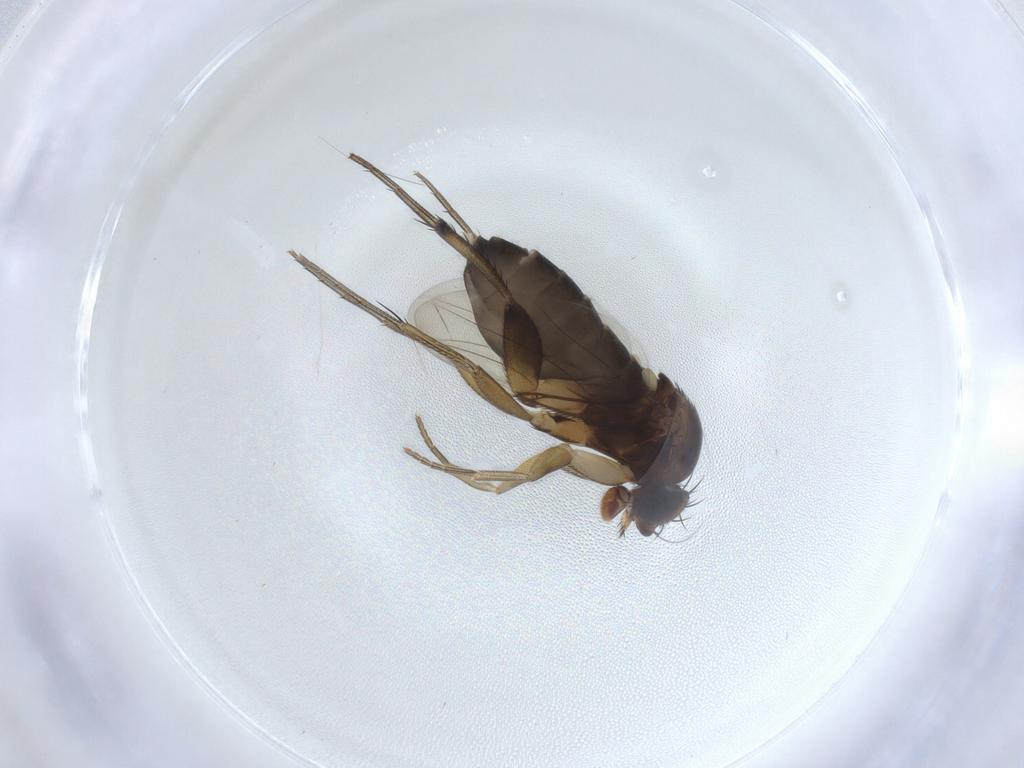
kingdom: Animalia
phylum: Arthropoda
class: Insecta
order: Diptera
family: Phoridae
